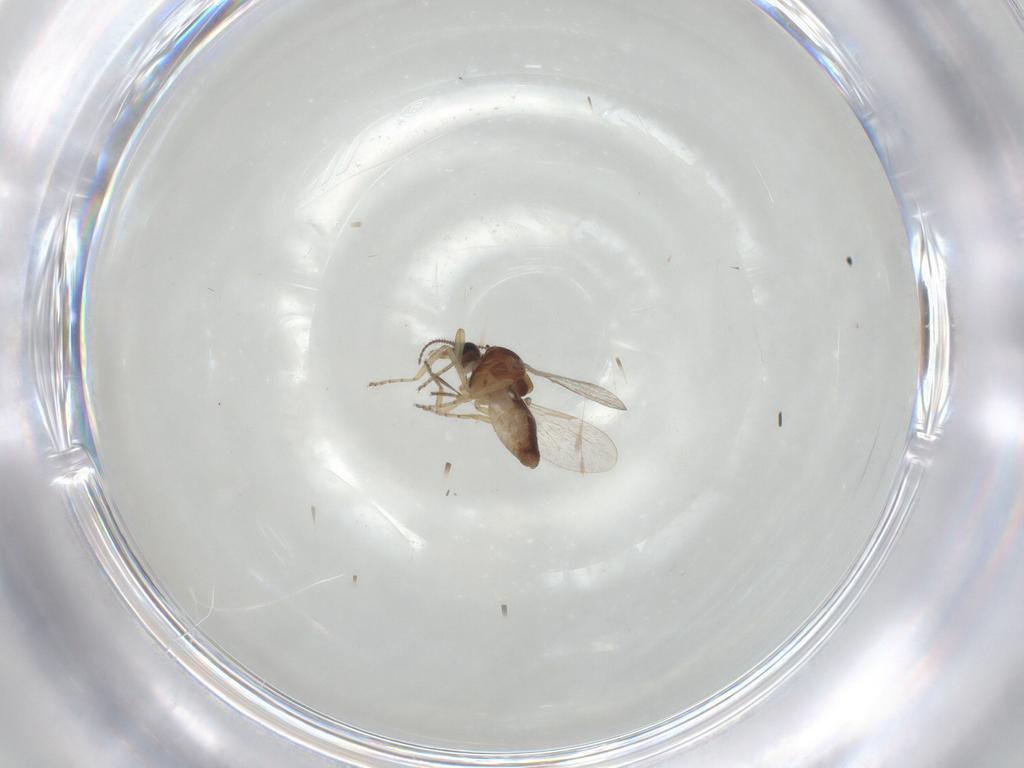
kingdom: Animalia
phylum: Arthropoda
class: Insecta
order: Diptera
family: Ceratopogonidae
